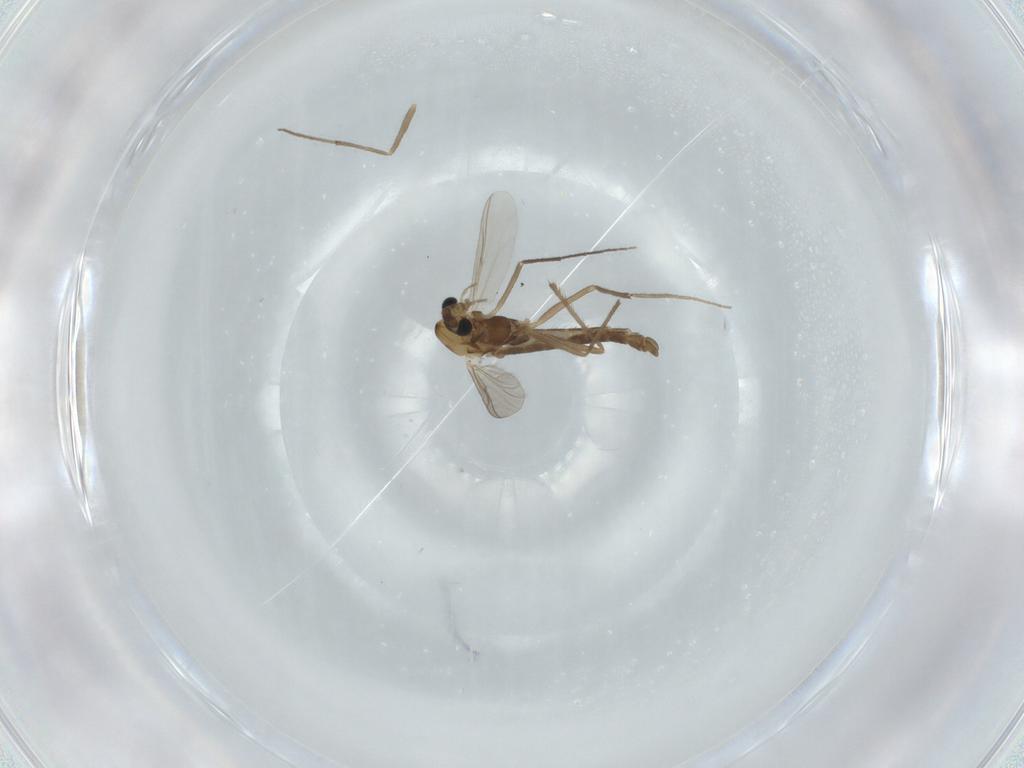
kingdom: Animalia
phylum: Arthropoda
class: Insecta
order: Diptera
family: Chironomidae
